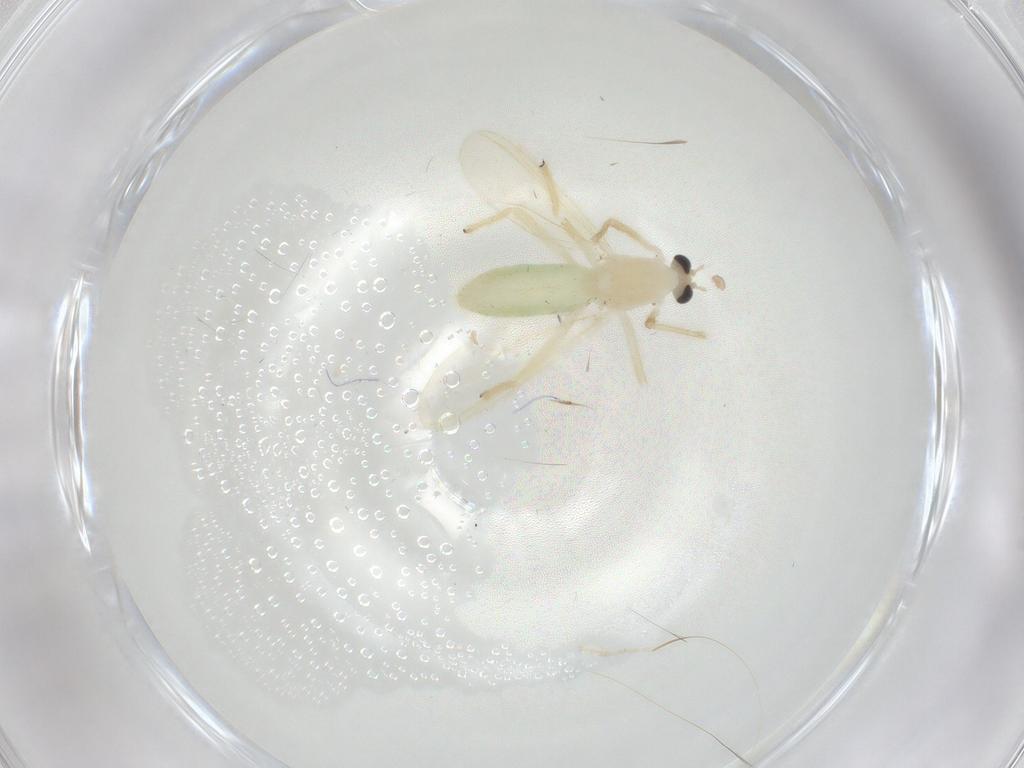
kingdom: Animalia
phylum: Arthropoda
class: Insecta
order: Diptera
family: Chironomidae
